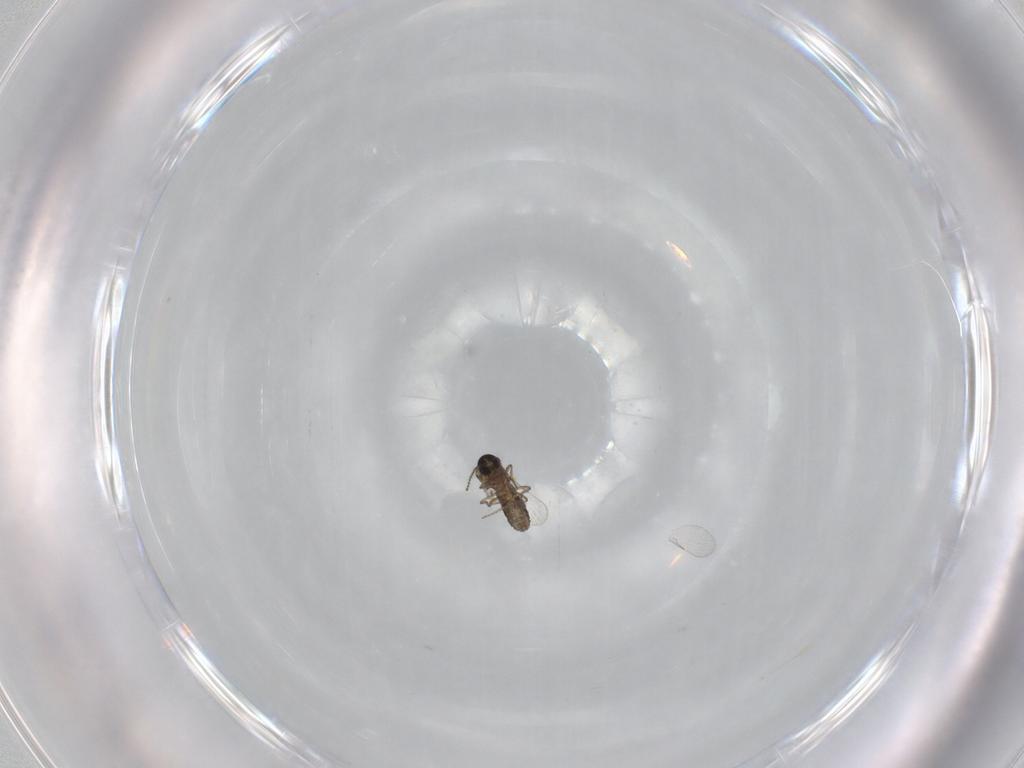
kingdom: Animalia
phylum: Arthropoda
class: Insecta
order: Diptera
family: Ceratopogonidae
